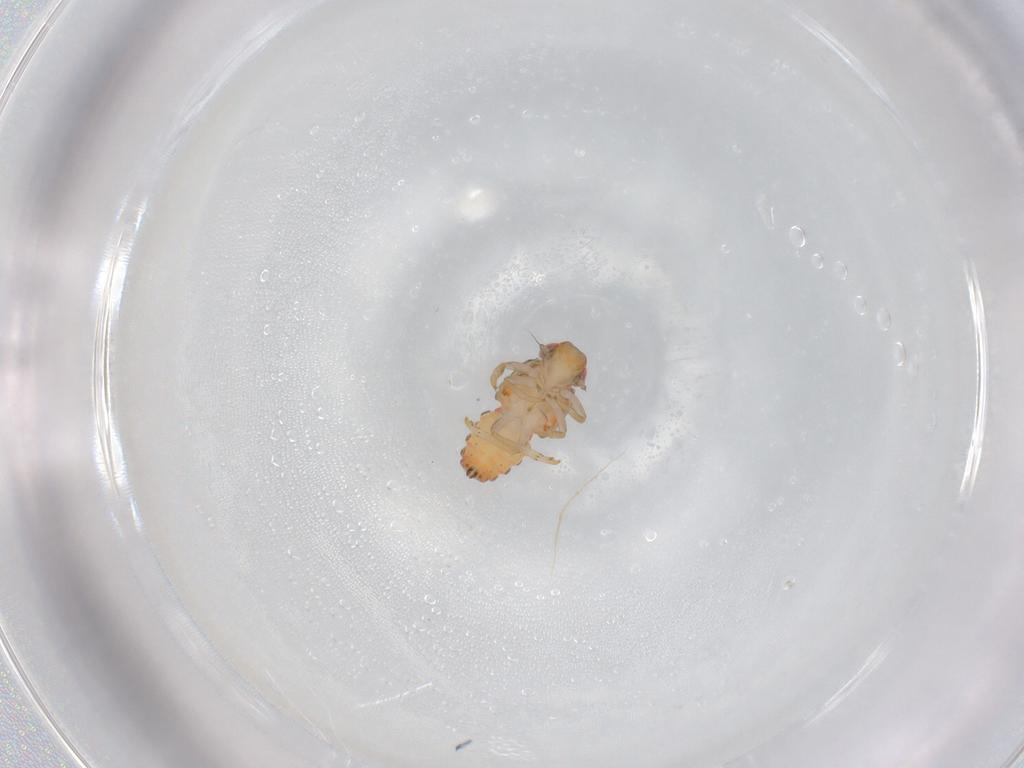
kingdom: Animalia
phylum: Arthropoda
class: Insecta
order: Hemiptera
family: Issidae
